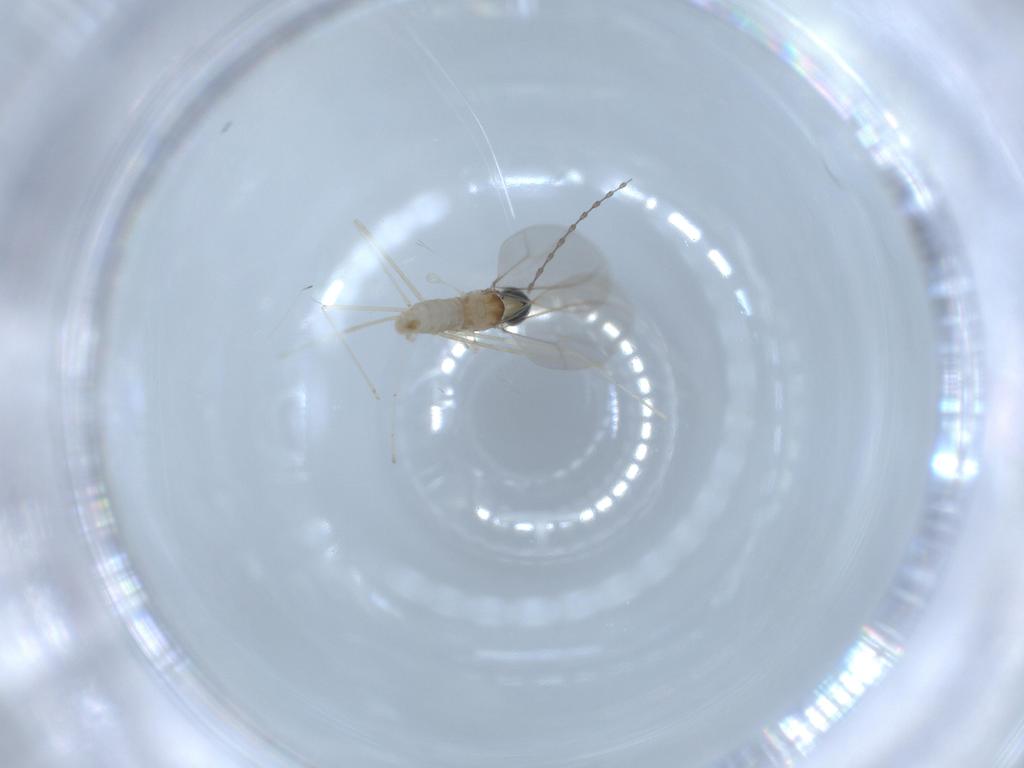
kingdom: Animalia
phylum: Arthropoda
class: Insecta
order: Diptera
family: Cecidomyiidae
